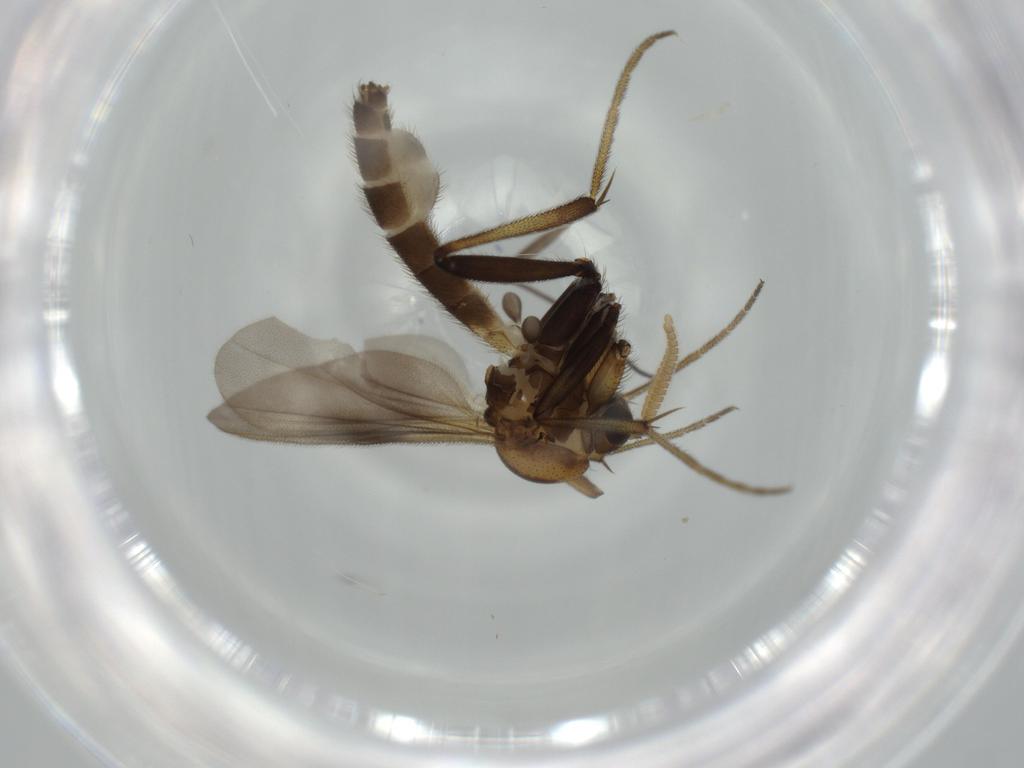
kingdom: Animalia
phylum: Arthropoda
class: Insecta
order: Diptera
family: Mycetophilidae
